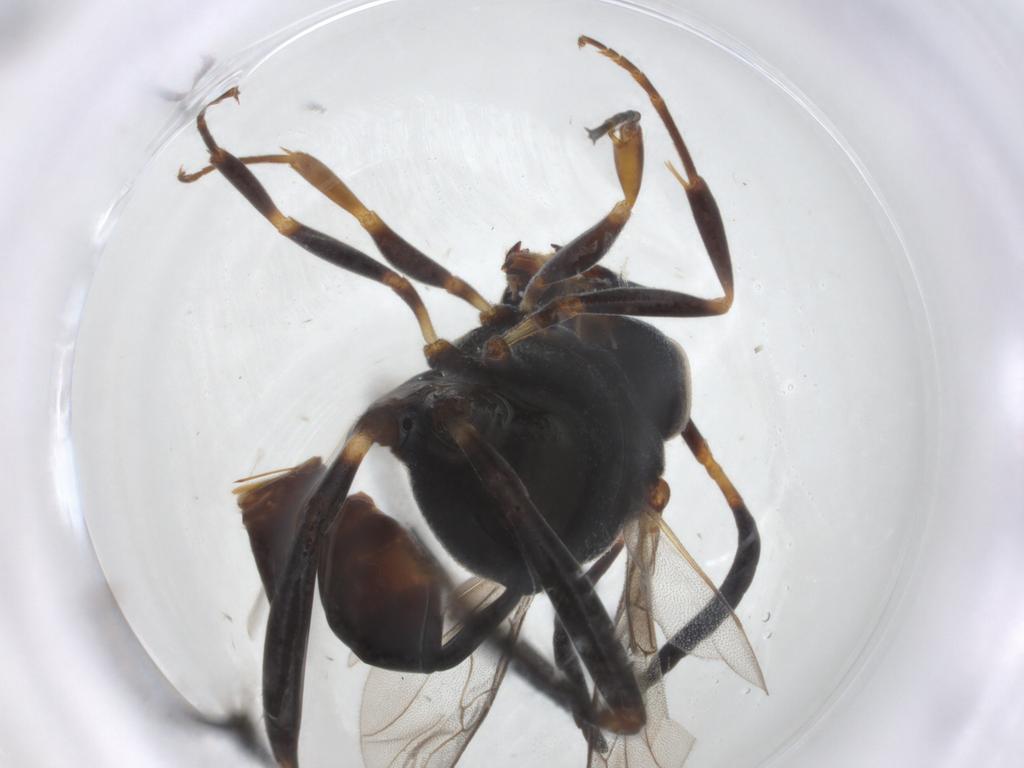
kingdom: Animalia
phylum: Arthropoda
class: Insecta
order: Hymenoptera
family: Evaniidae
